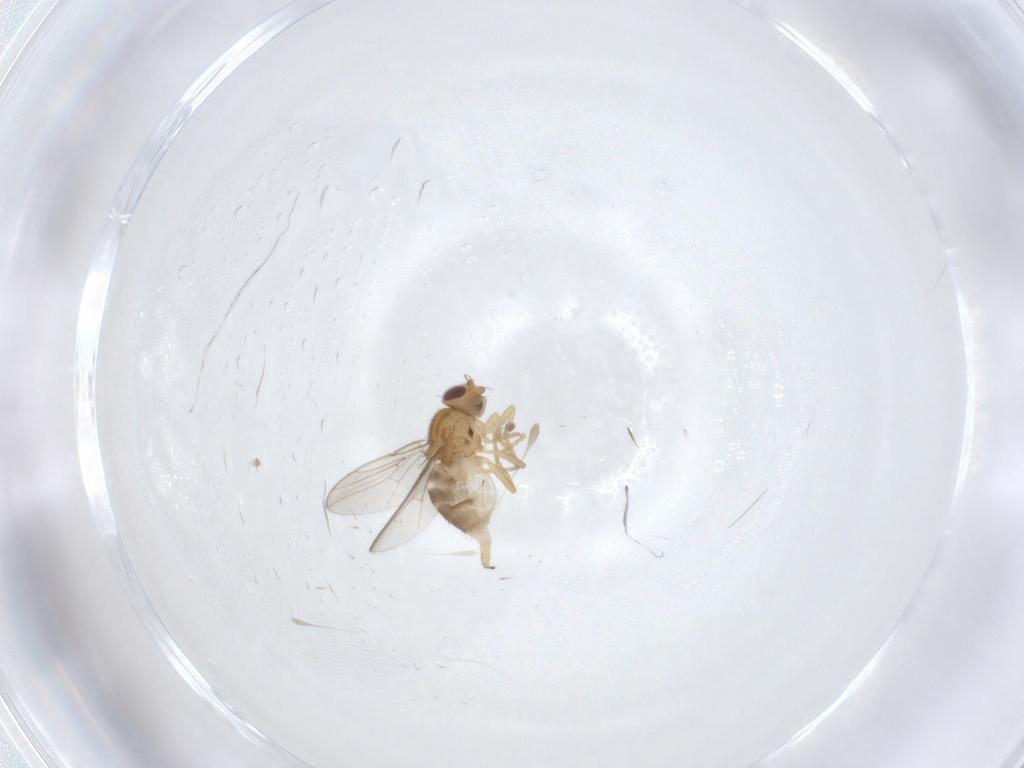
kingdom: Animalia
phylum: Arthropoda
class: Insecta
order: Diptera
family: Chloropidae
